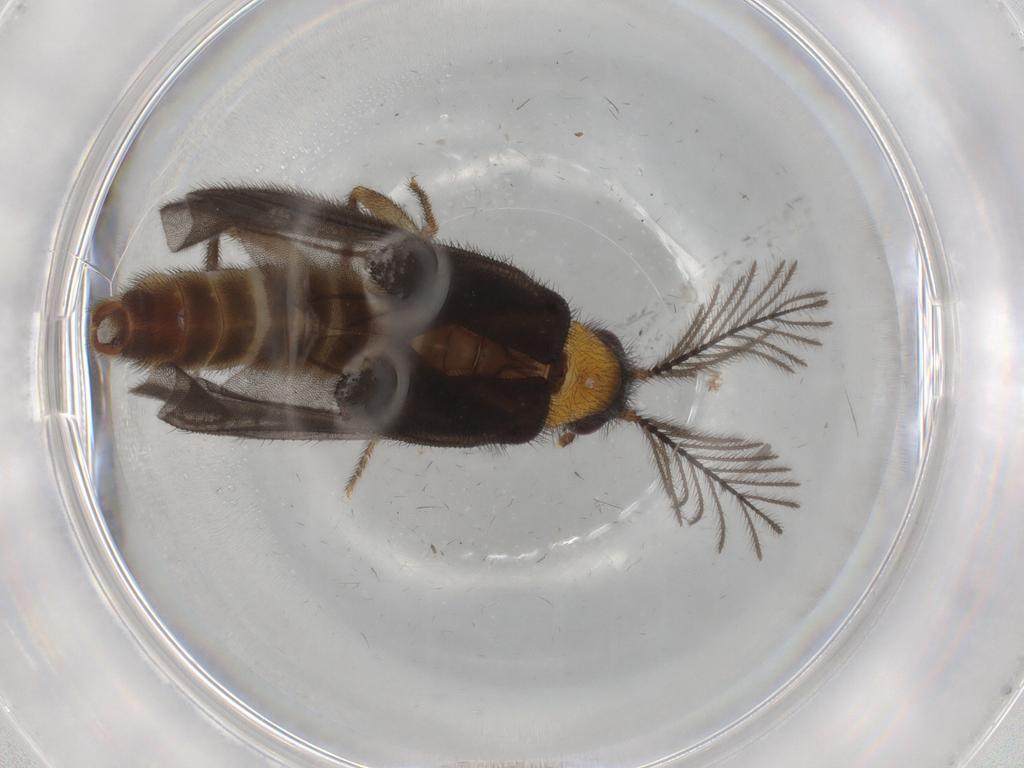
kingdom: Animalia
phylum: Arthropoda
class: Insecta
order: Coleoptera
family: Phengodidae
